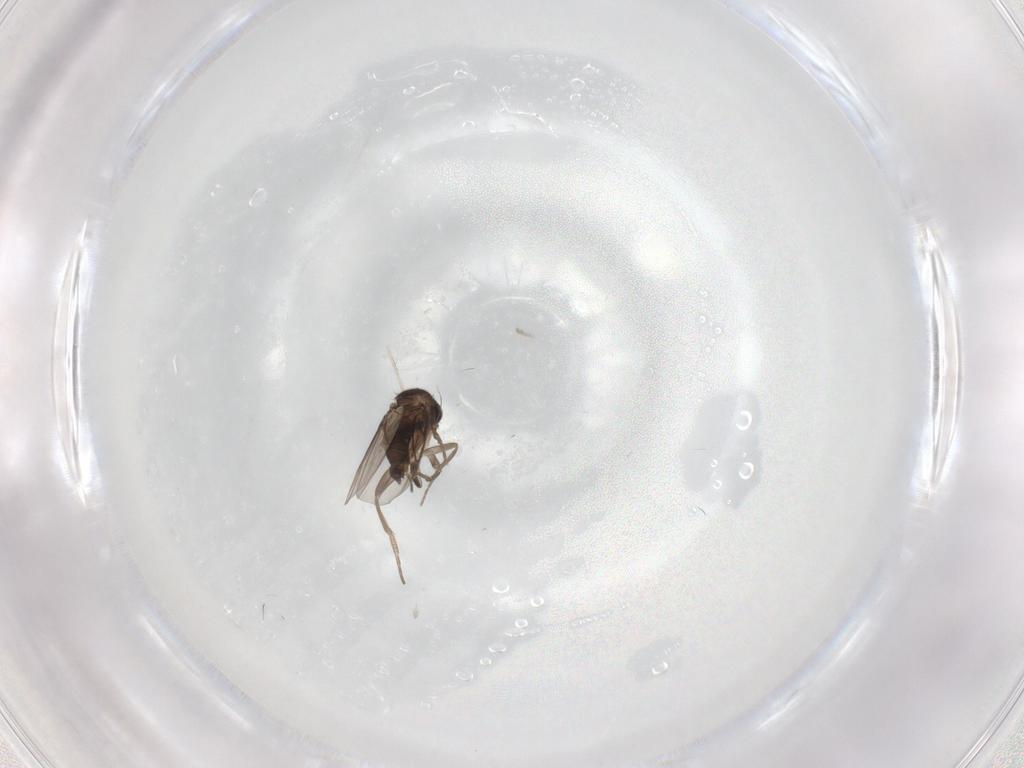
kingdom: Animalia
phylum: Arthropoda
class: Insecta
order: Diptera
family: Phoridae
